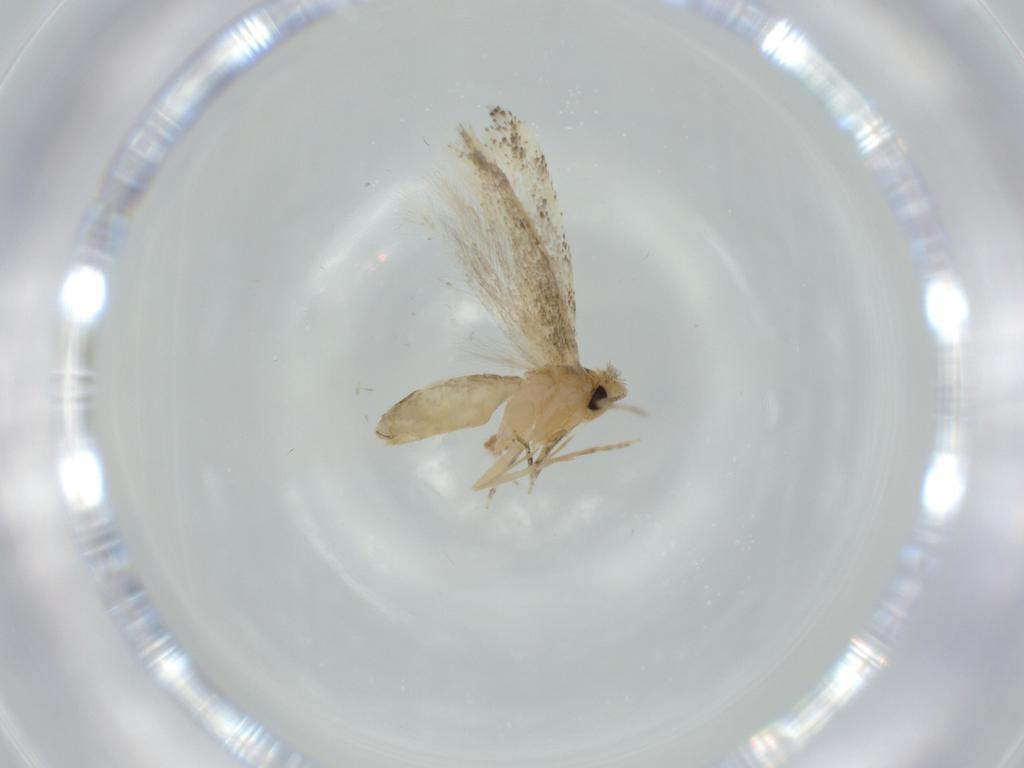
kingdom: Animalia
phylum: Arthropoda
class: Insecta
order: Lepidoptera
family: Bucculatricidae
